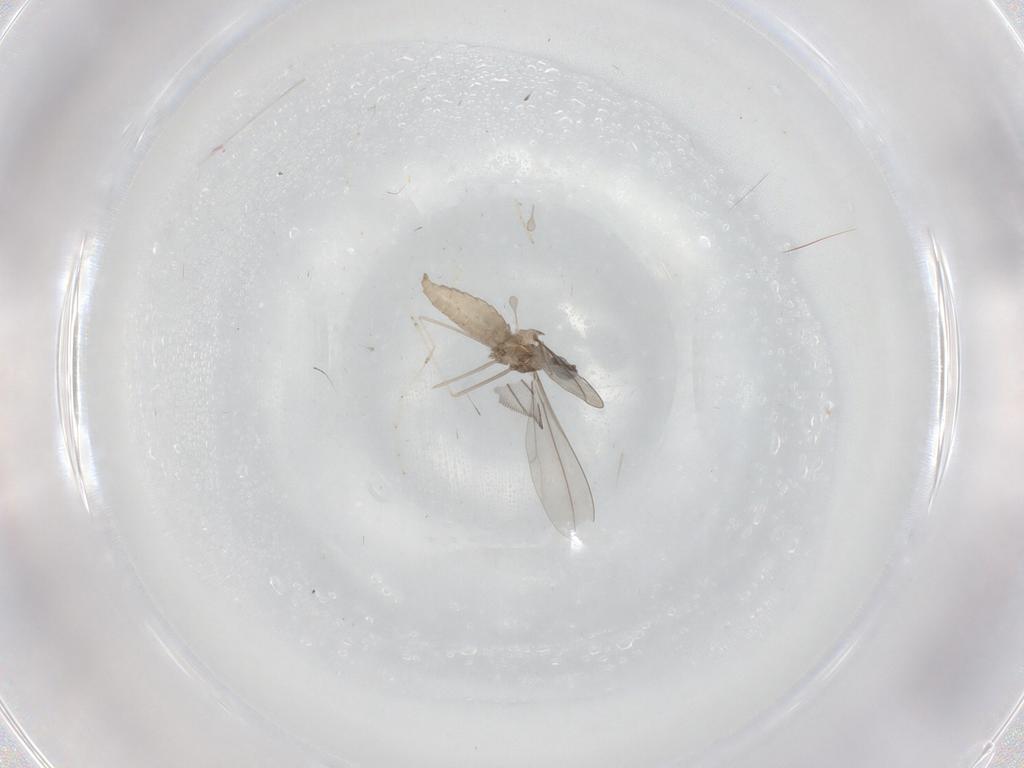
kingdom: Animalia
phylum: Arthropoda
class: Insecta
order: Diptera
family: Cecidomyiidae
